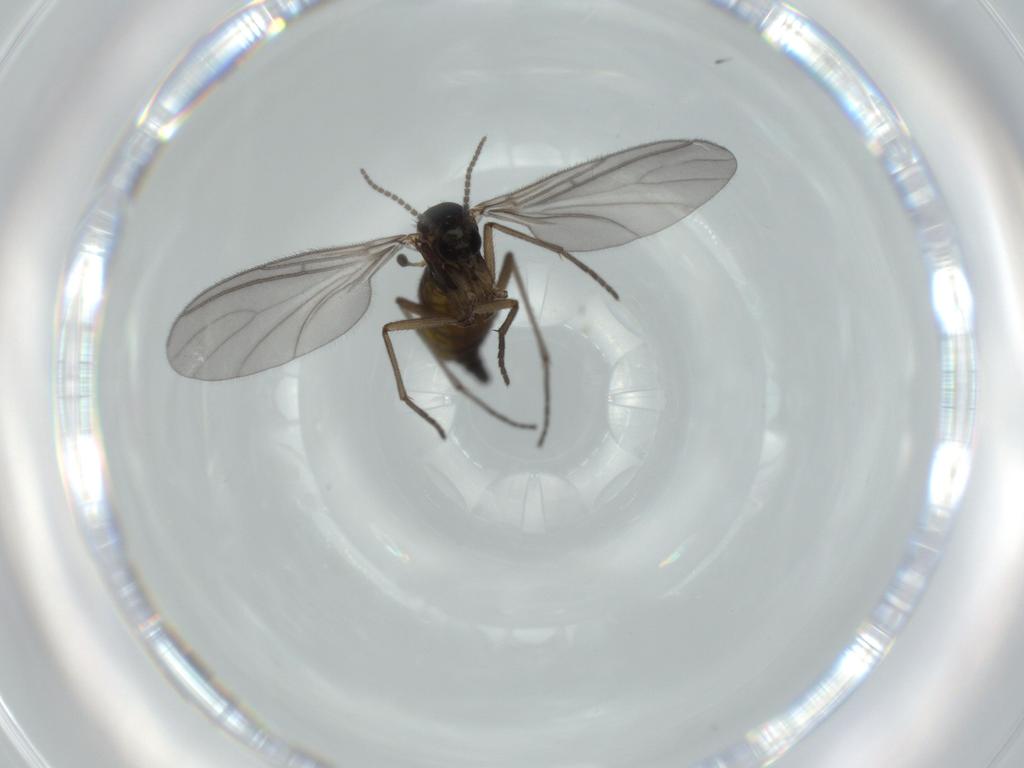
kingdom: Animalia
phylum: Arthropoda
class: Insecta
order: Diptera
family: Sciaridae
